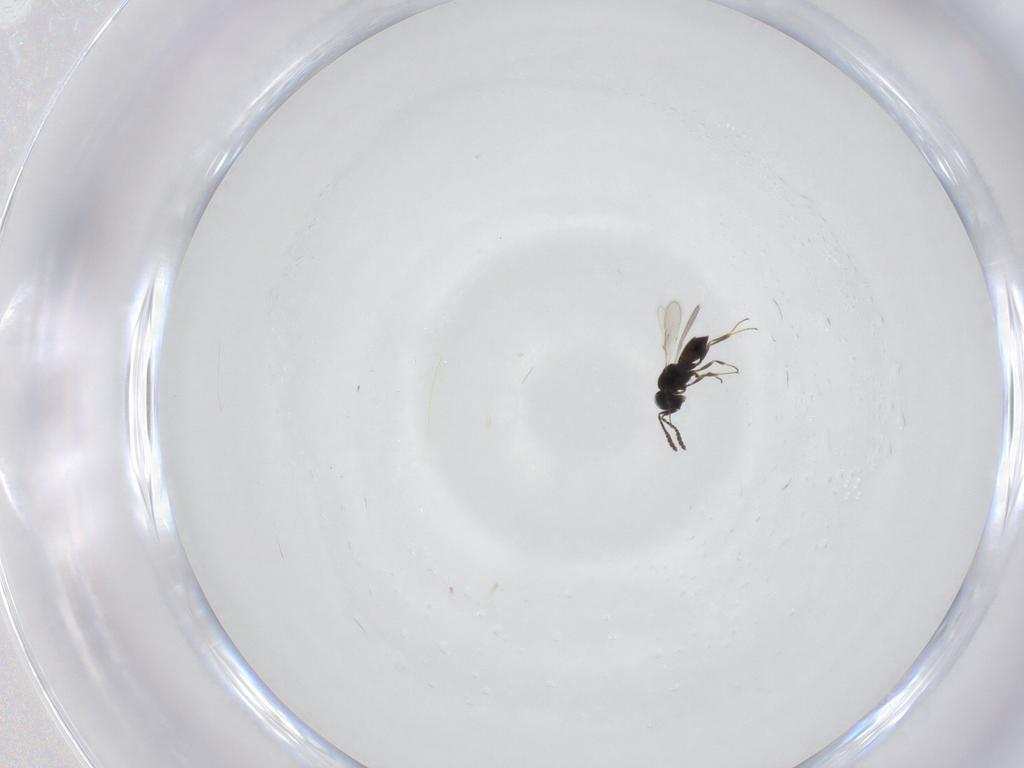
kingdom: Animalia
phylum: Arthropoda
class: Insecta
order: Hymenoptera
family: Scelionidae
